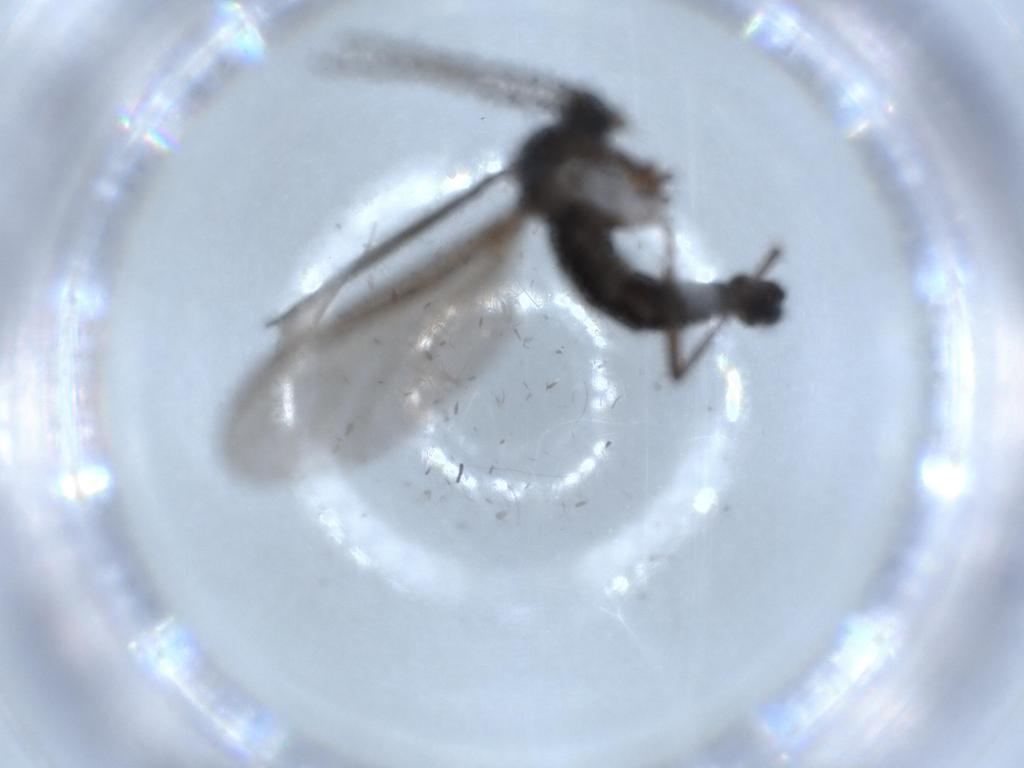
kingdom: Animalia
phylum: Arthropoda
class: Insecta
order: Diptera
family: Sciaridae
